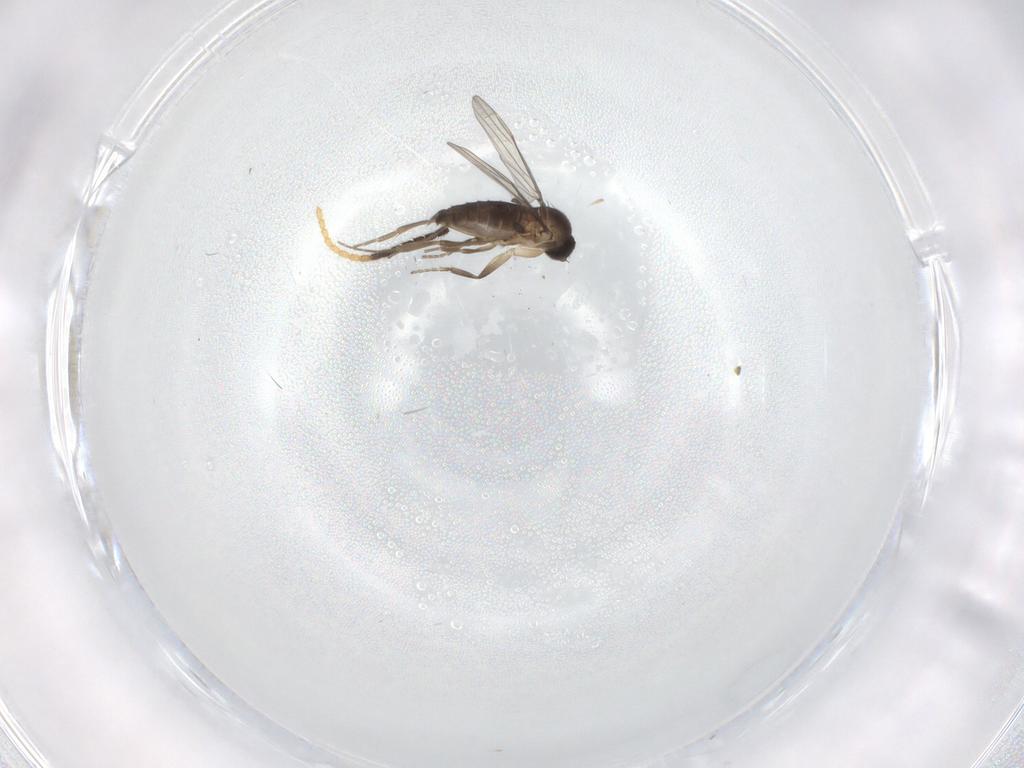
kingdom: Animalia
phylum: Arthropoda
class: Insecta
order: Diptera
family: Phoridae
